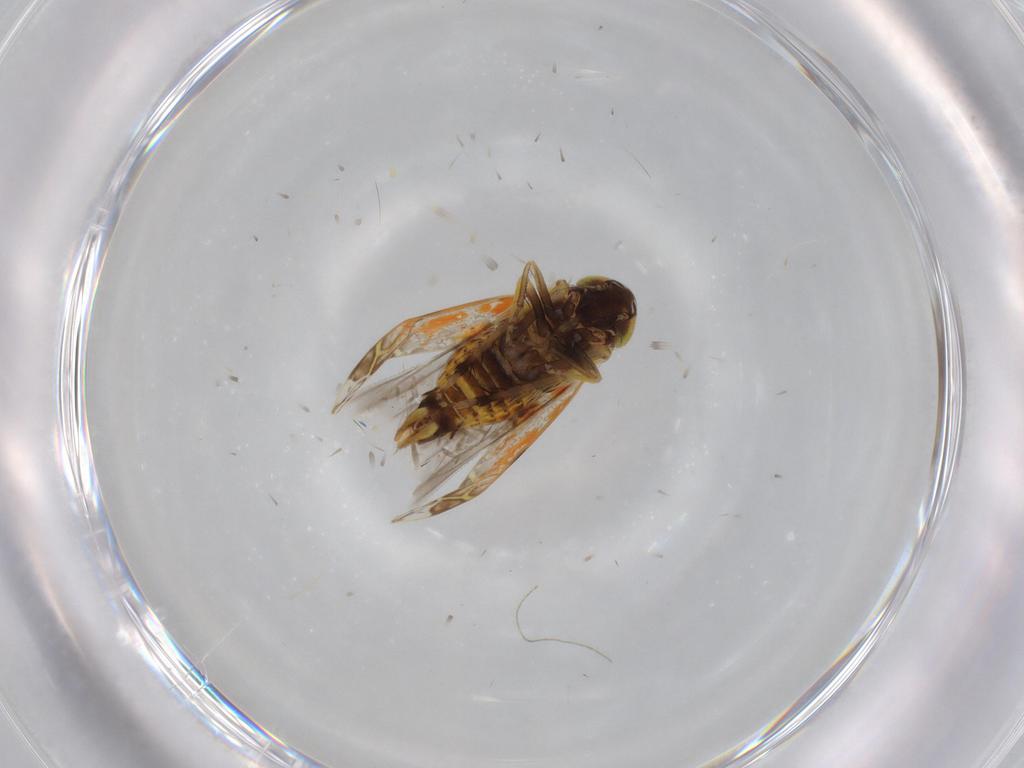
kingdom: Animalia
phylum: Arthropoda
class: Insecta
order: Hemiptera
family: Cicadellidae
